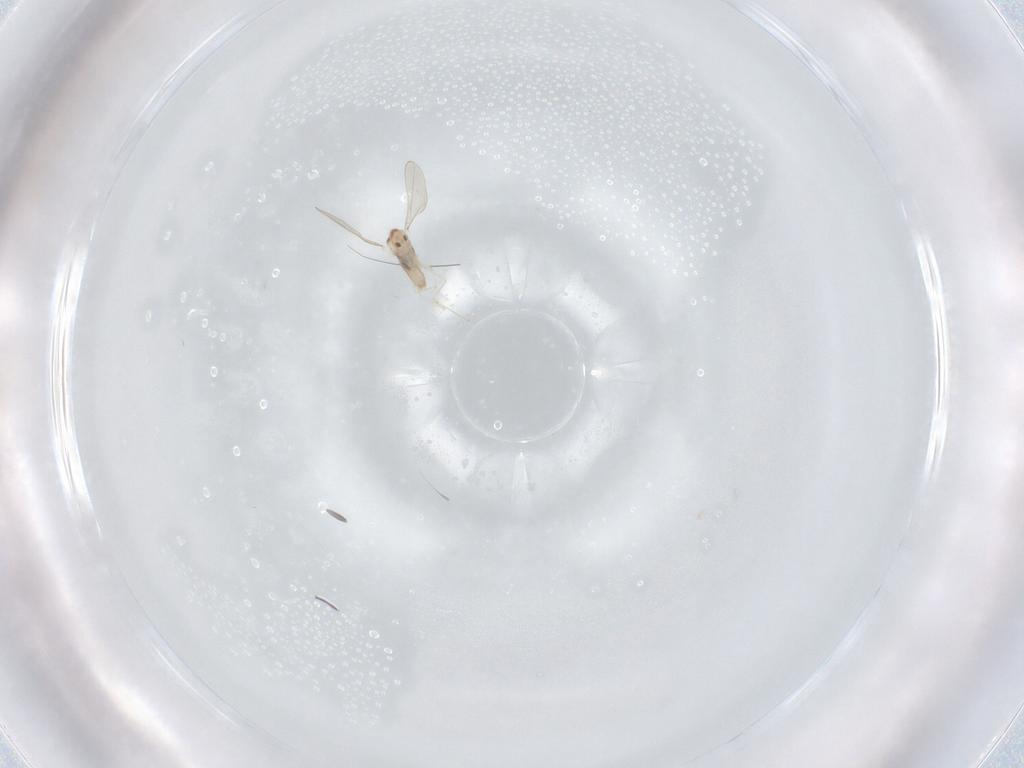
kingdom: Animalia
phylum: Arthropoda
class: Insecta
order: Diptera
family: Cecidomyiidae
